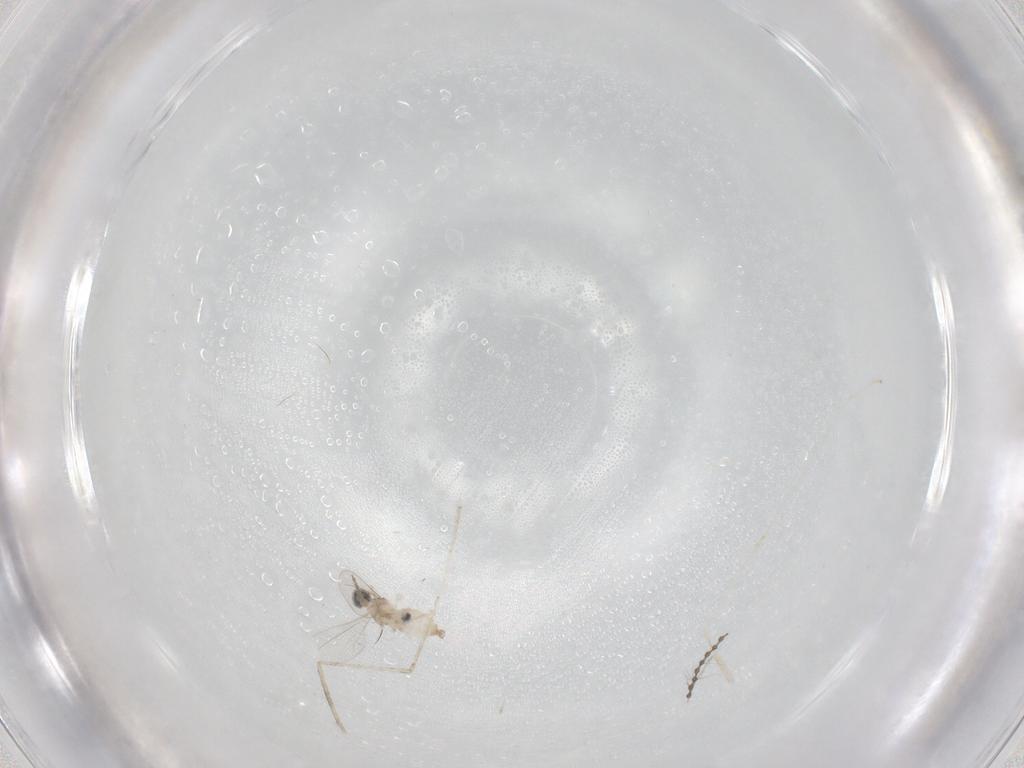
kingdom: Animalia
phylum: Arthropoda
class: Insecta
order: Diptera
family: Cecidomyiidae
